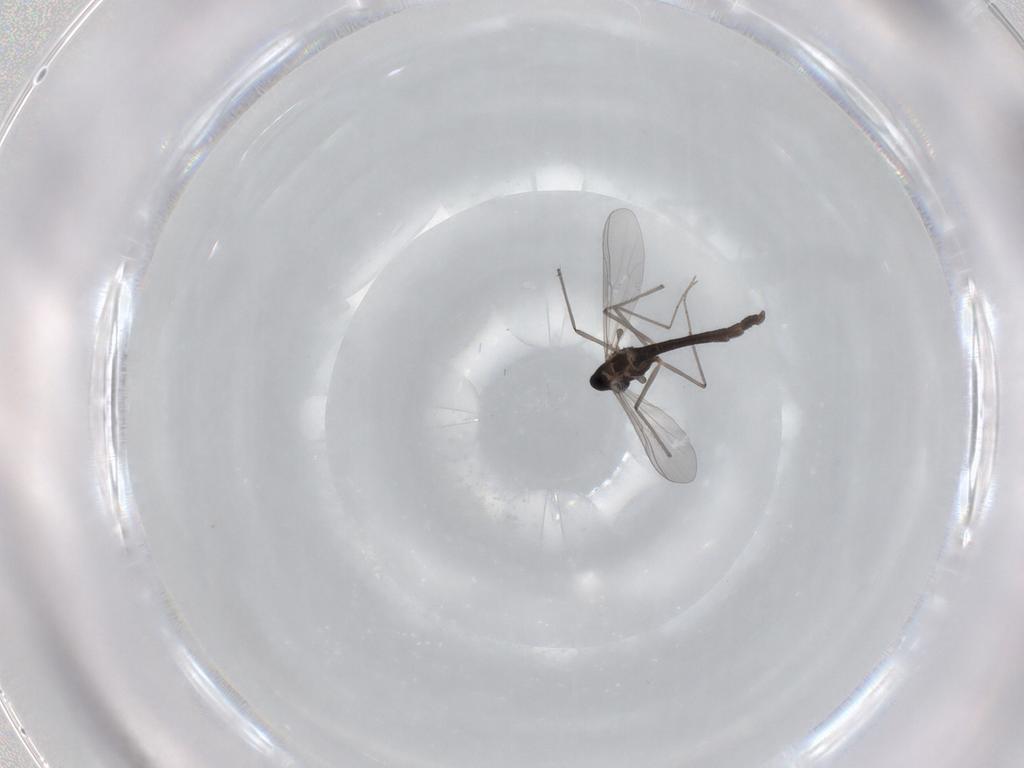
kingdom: Animalia
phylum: Arthropoda
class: Insecta
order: Diptera
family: Chironomidae
